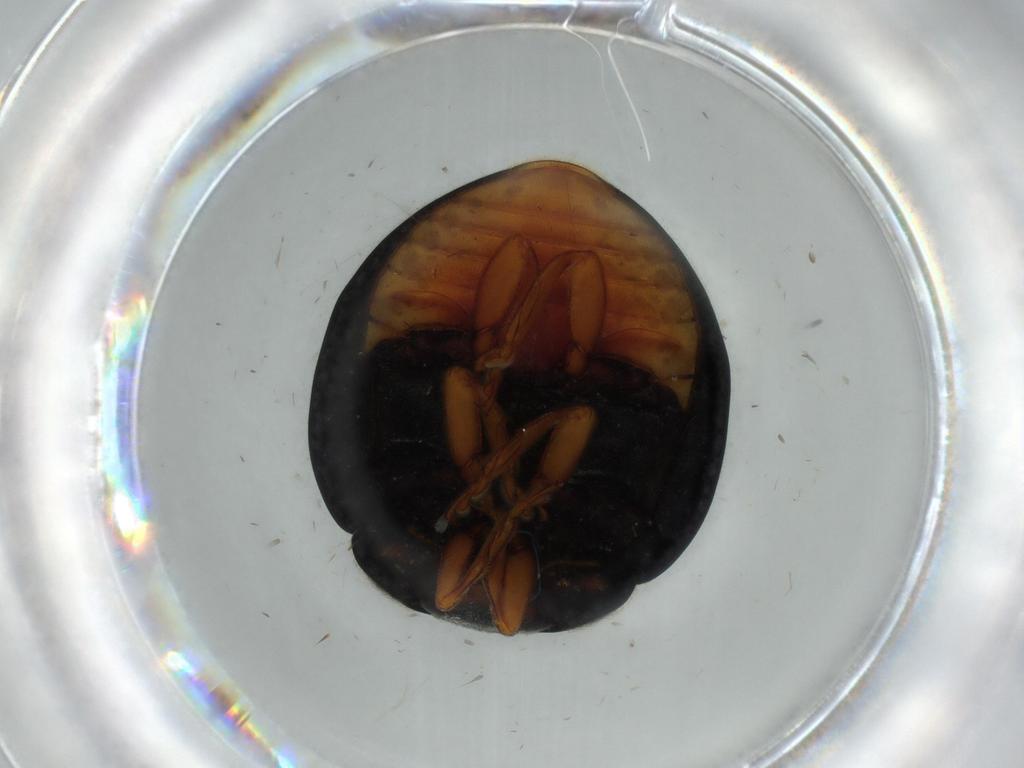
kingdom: Animalia
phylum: Arthropoda
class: Insecta
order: Coleoptera
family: Coccinellidae
